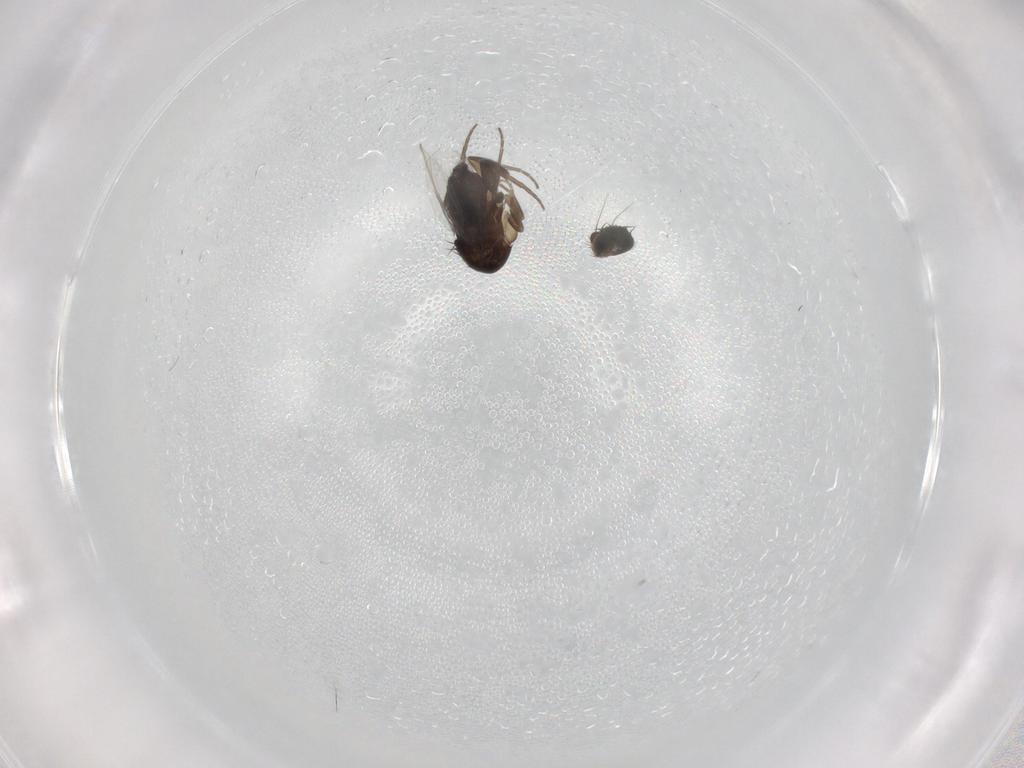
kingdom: Animalia
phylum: Arthropoda
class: Insecta
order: Diptera
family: Phoridae
